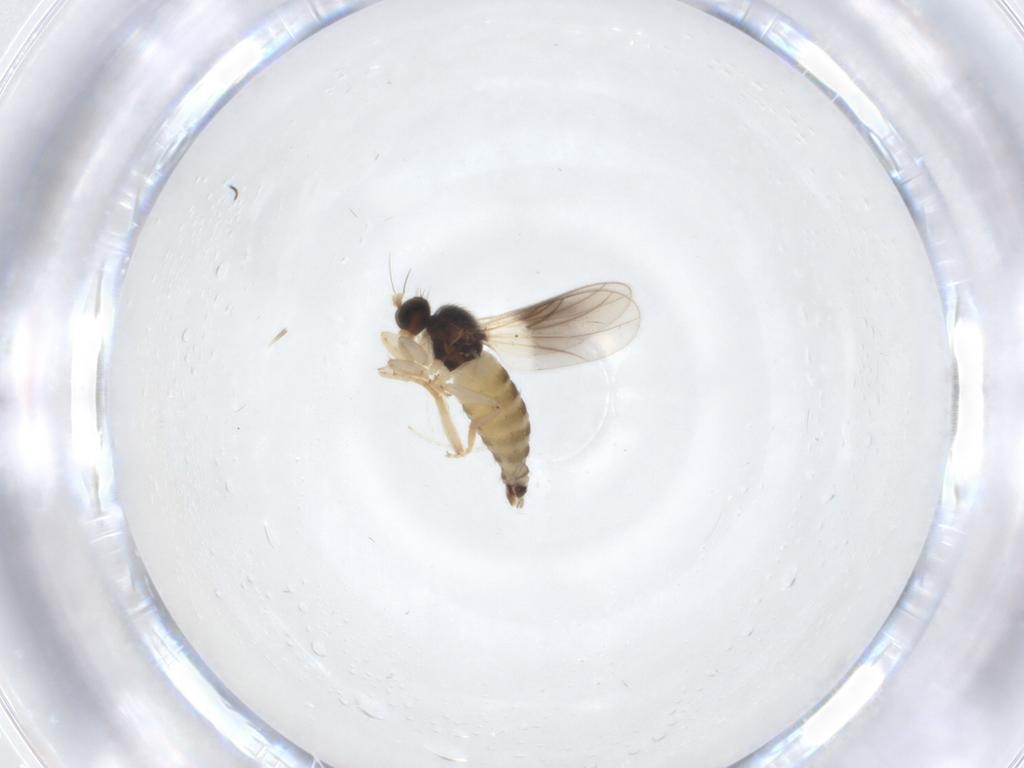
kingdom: Animalia
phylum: Arthropoda
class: Insecta
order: Diptera
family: Hybotidae
